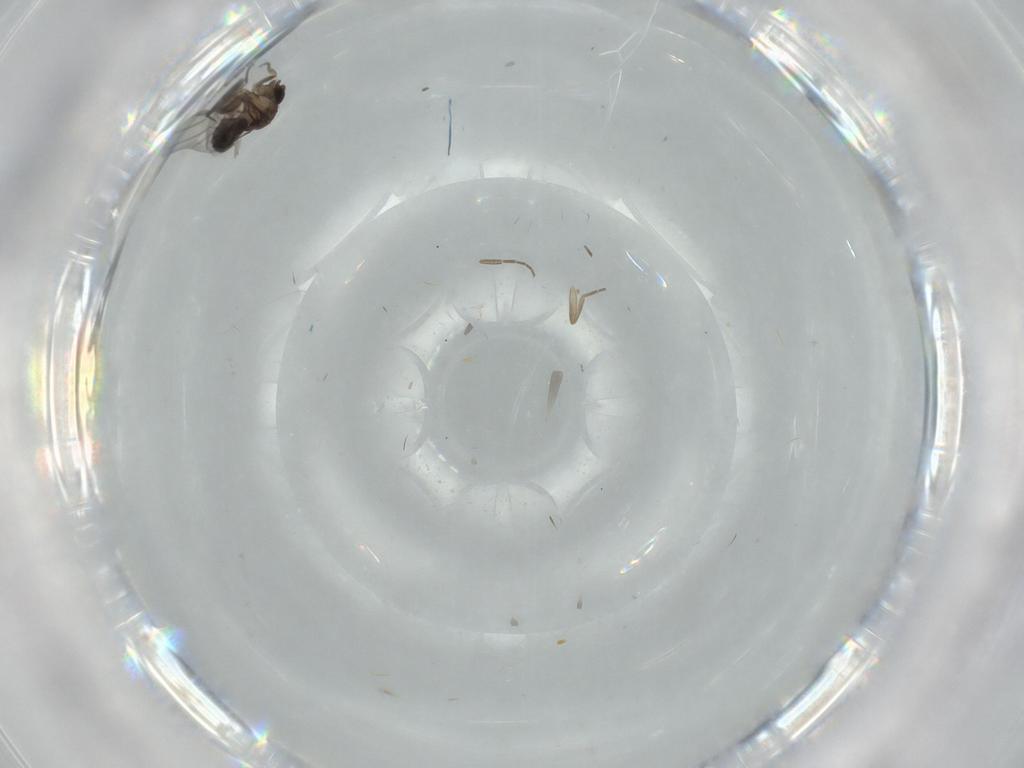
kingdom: Animalia
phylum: Arthropoda
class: Insecta
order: Diptera
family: Phoridae
